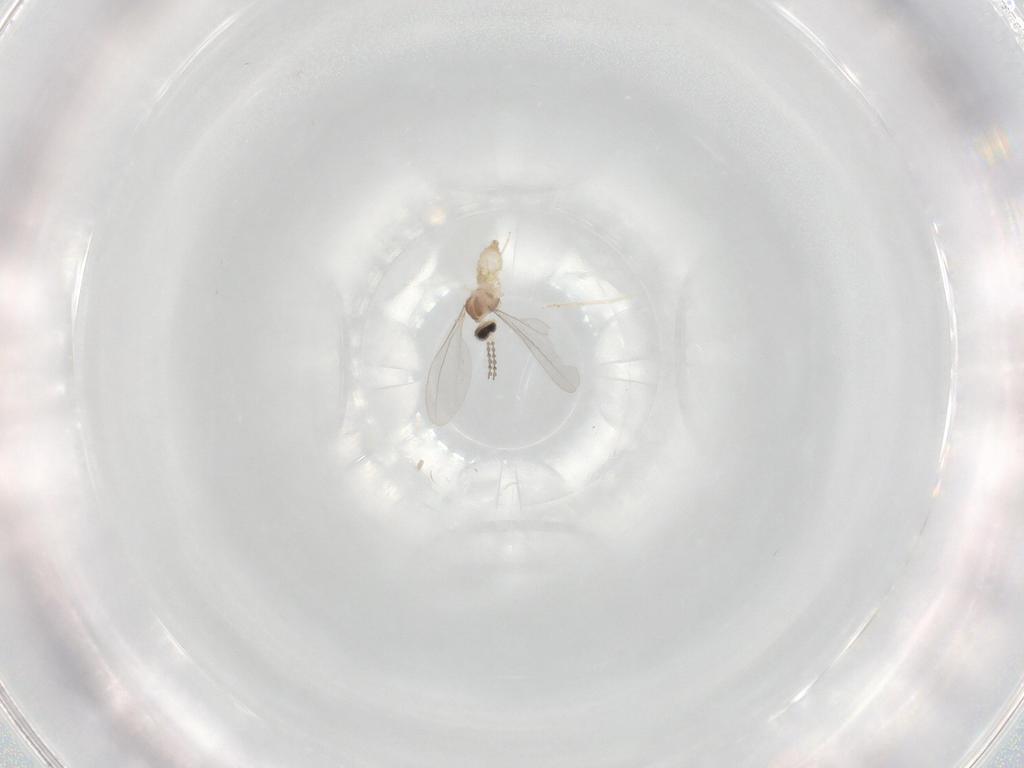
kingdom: Animalia
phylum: Arthropoda
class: Insecta
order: Diptera
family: Cecidomyiidae
